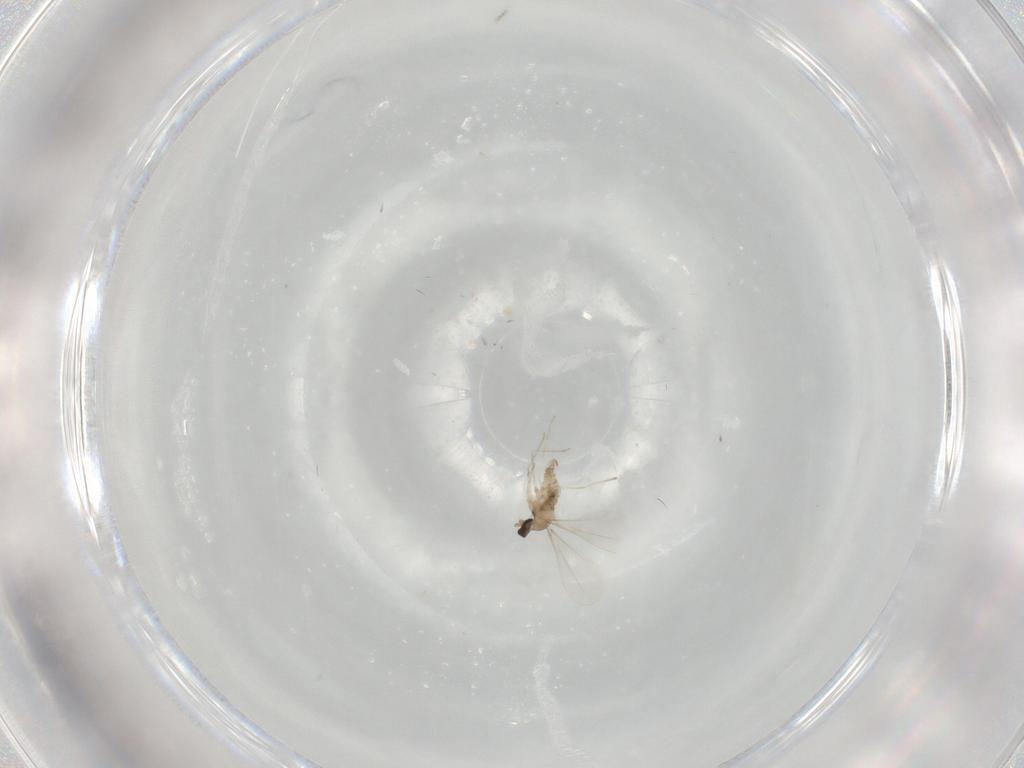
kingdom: Animalia
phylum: Arthropoda
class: Insecta
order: Diptera
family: Cecidomyiidae
